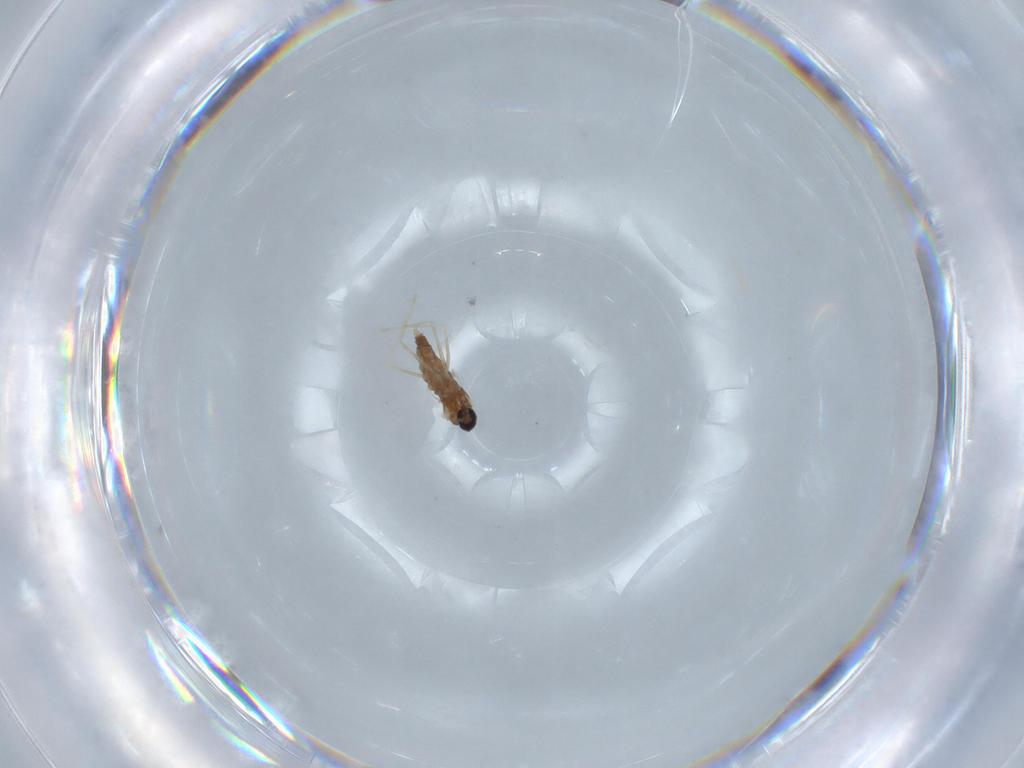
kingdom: Animalia
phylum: Arthropoda
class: Insecta
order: Diptera
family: Cecidomyiidae
